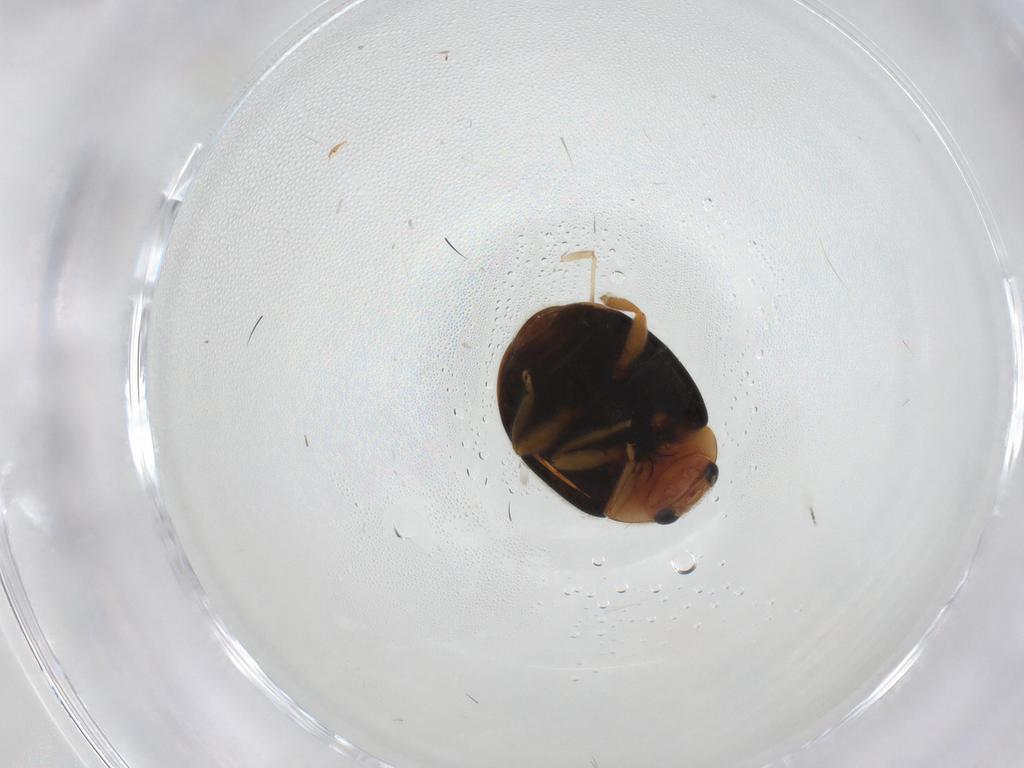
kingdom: Animalia
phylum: Arthropoda
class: Insecta
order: Coleoptera
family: Coccinellidae
